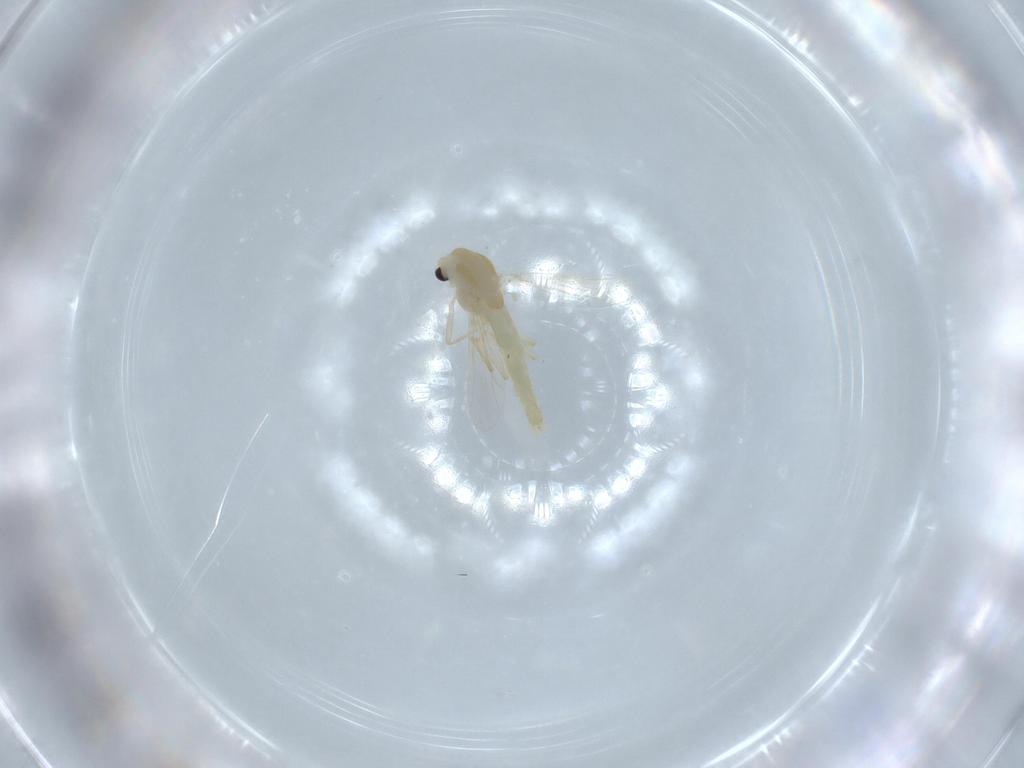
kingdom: Animalia
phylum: Arthropoda
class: Insecta
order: Diptera
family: Chironomidae
